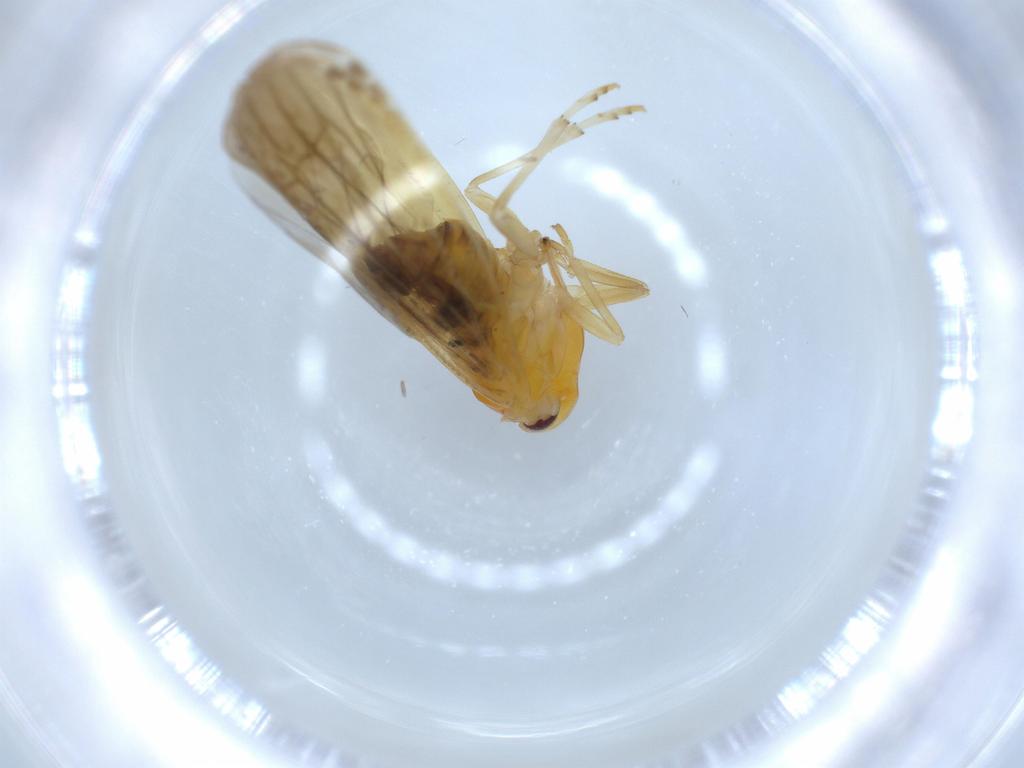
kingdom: Animalia
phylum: Arthropoda
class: Insecta
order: Hemiptera
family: Derbidae
